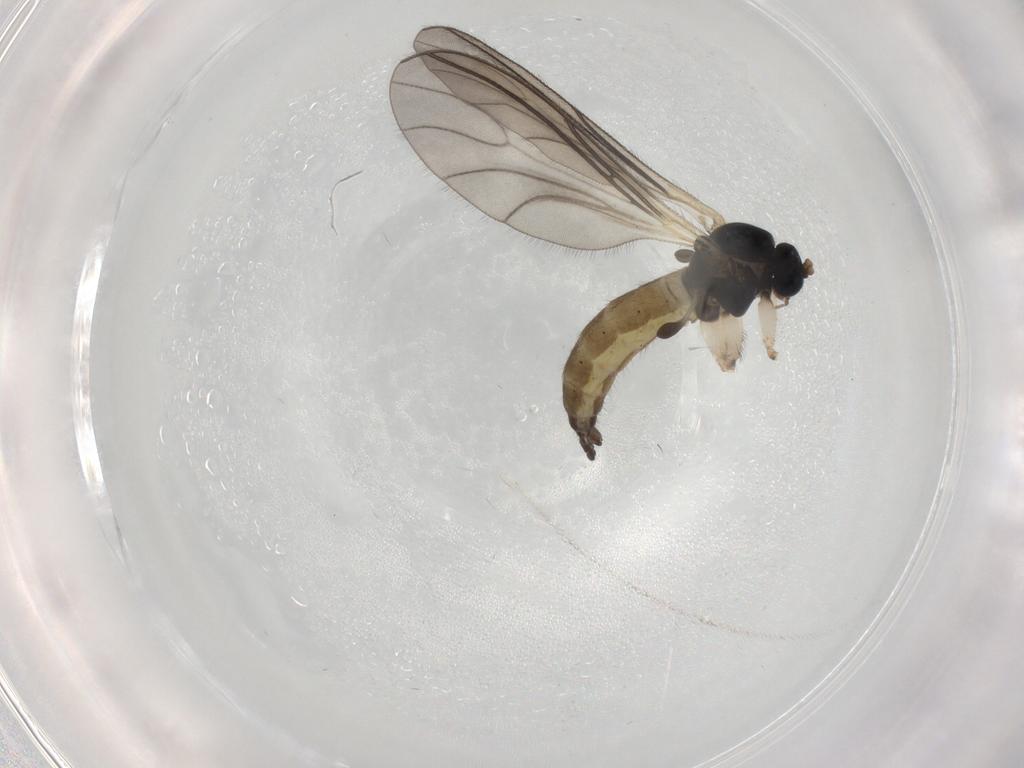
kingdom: Animalia
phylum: Arthropoda
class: Insecta
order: Diptera
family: Sciaridae
